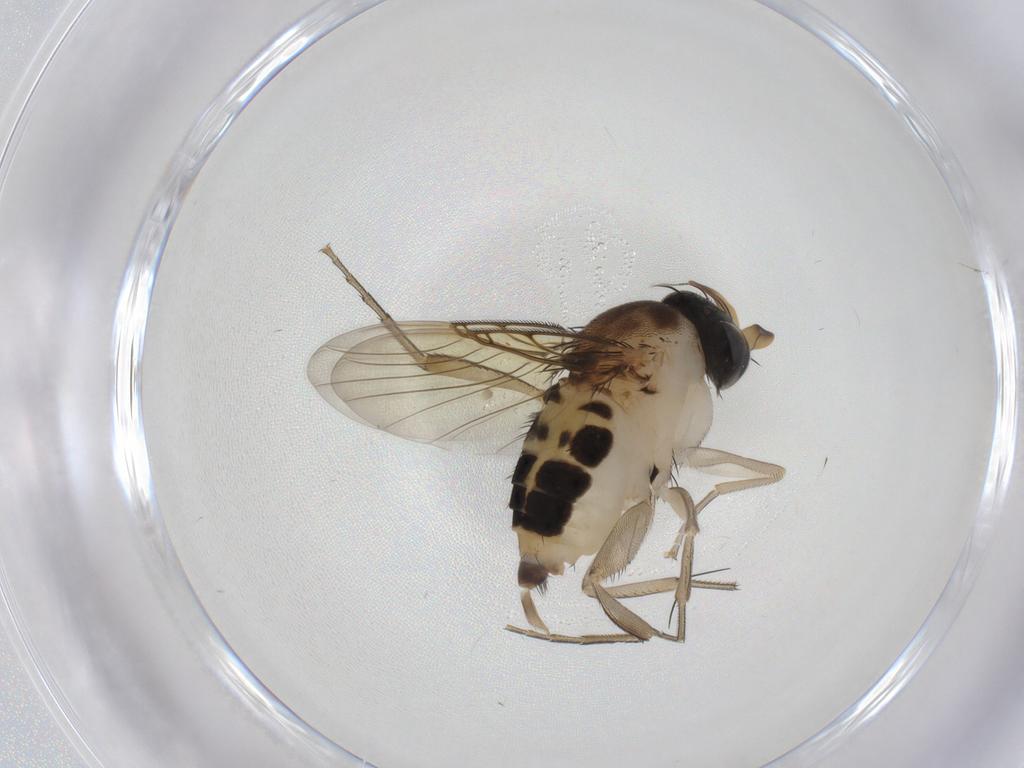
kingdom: Animalia
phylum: Arthropoda
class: Insecta
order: Diptera
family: Phoridae
